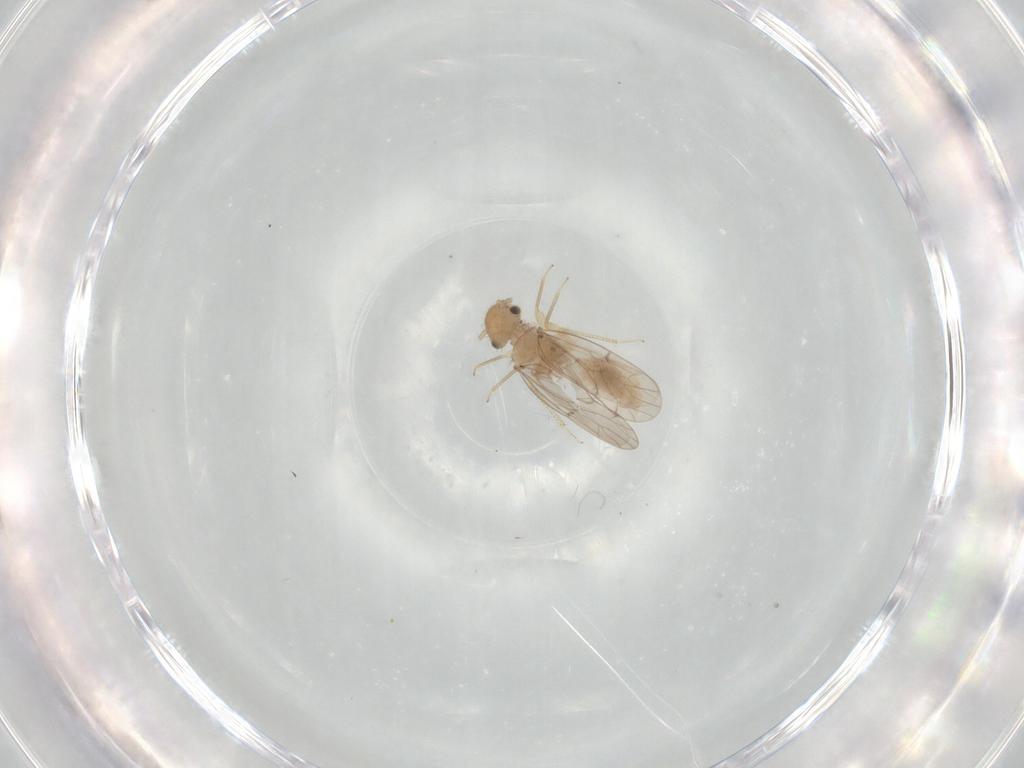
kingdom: Animalia
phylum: Arthropoda
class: Insecta
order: Psocodea
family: Ectopsocidae
